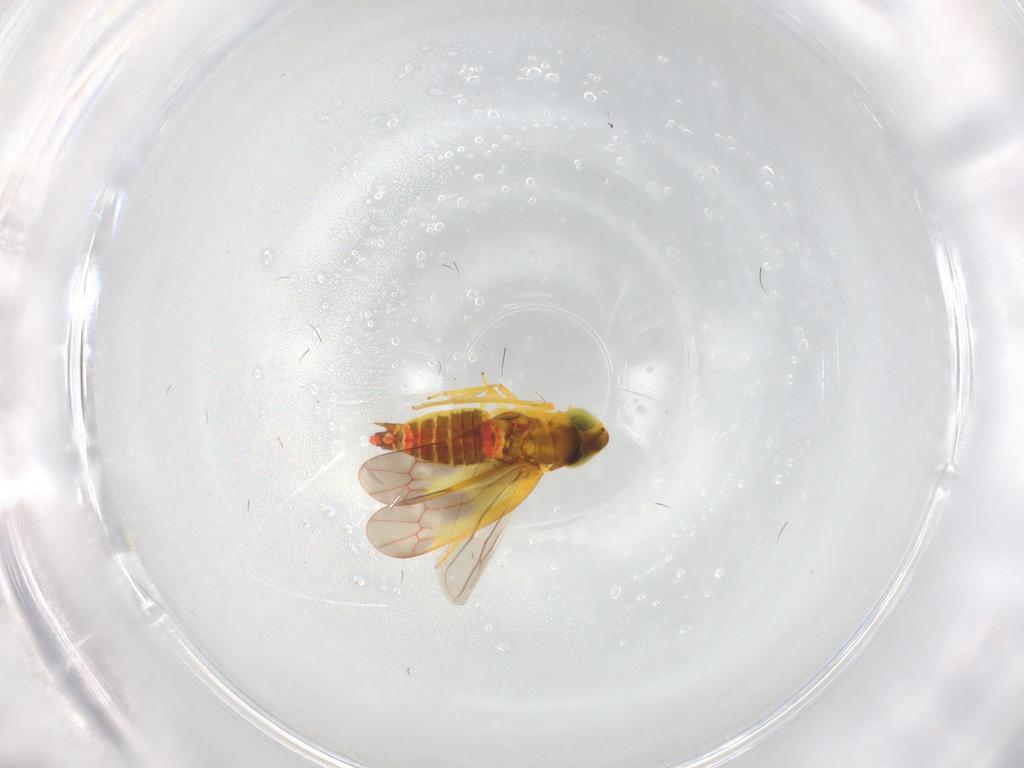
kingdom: Animalia
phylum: Arthropoda
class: Insecta
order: Hemiptera
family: Cicadellidae
